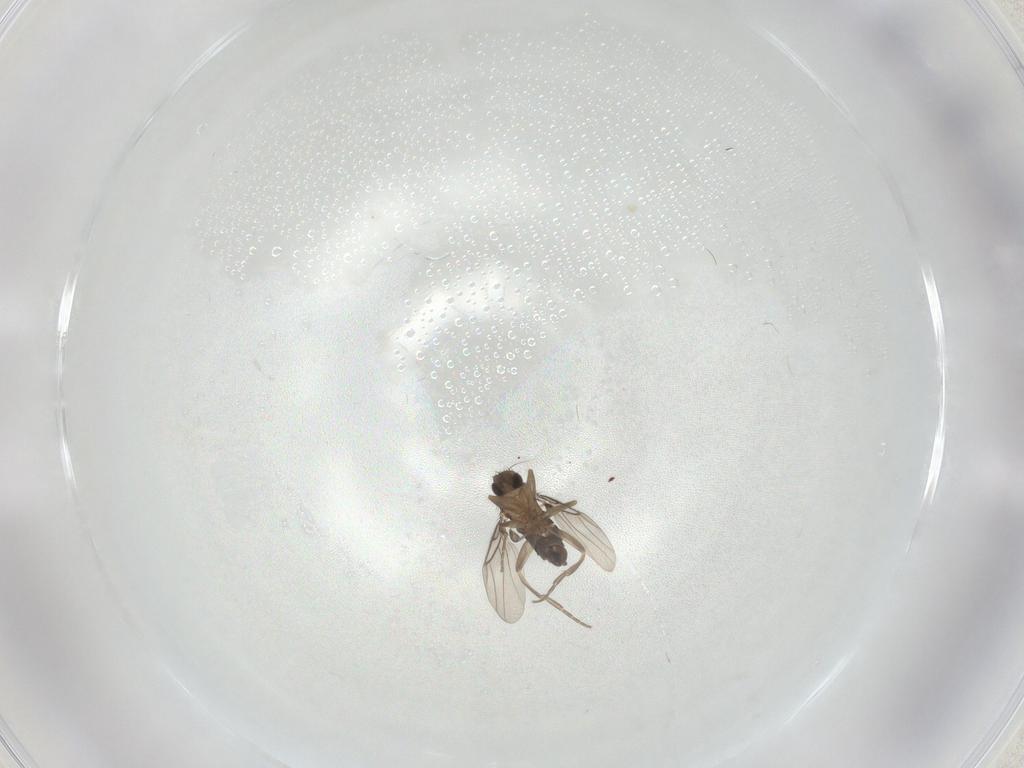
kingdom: Animalia
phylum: Arthropoda
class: Insecta
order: Diptera
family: Phoridae
